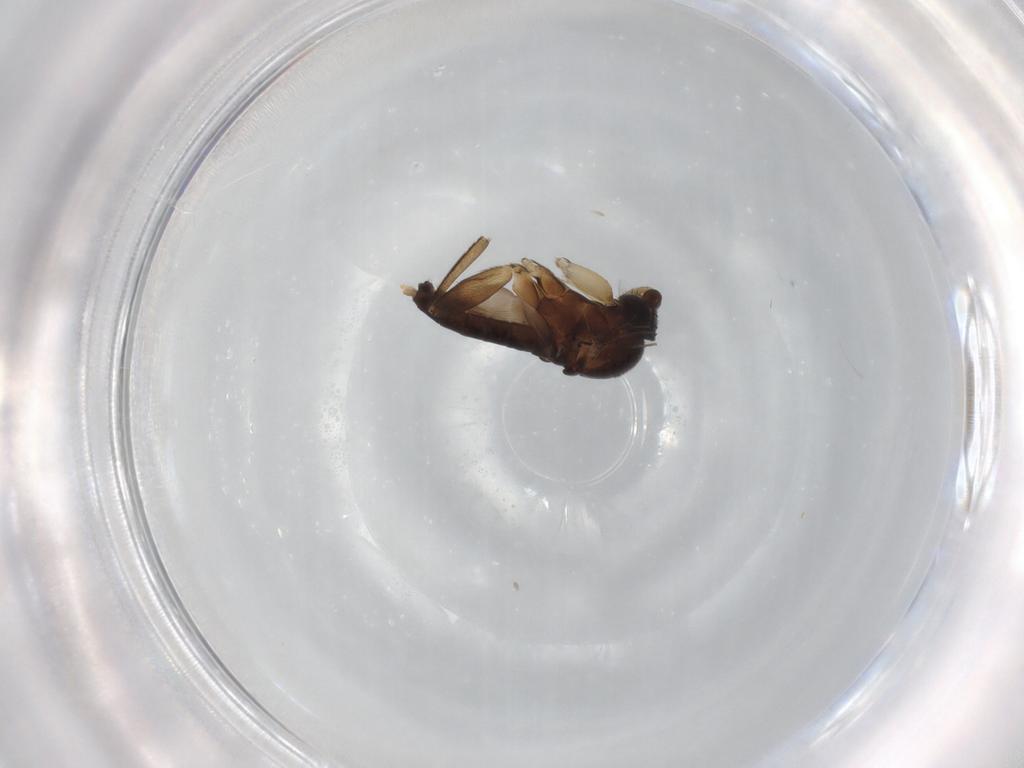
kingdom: Animalia
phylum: Arthropoda
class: Insecta
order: Diptera
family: Phoridae
